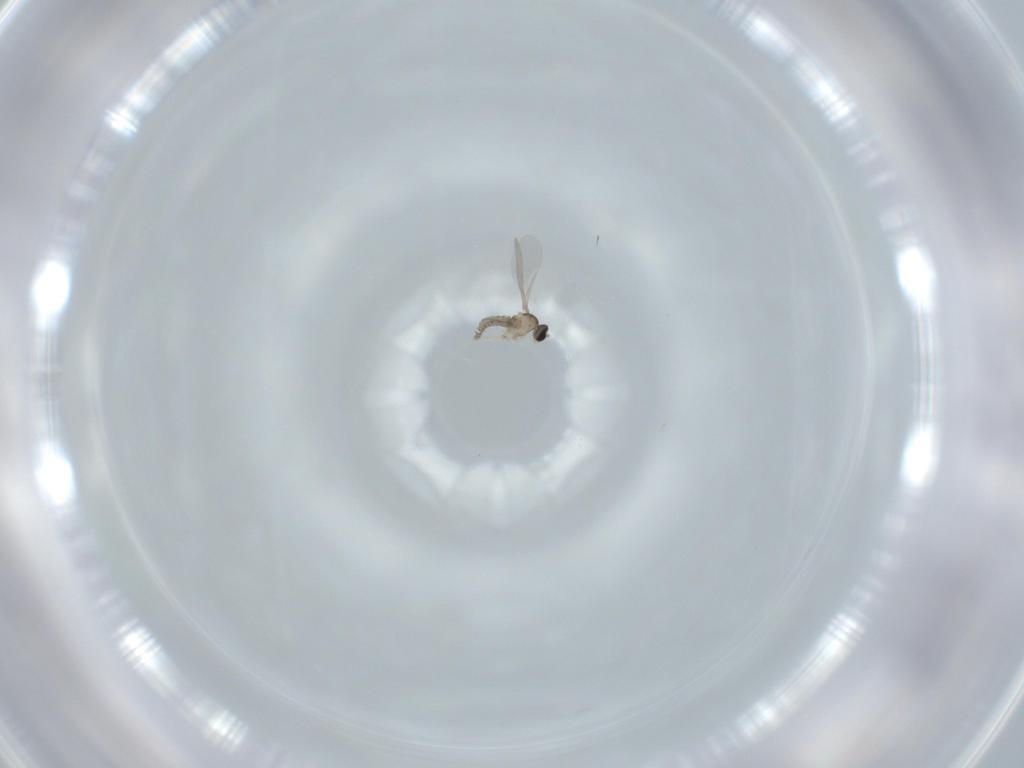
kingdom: Animalia
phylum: Arthropoda
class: Insecta
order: Diptera
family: Cecidomyiidae
